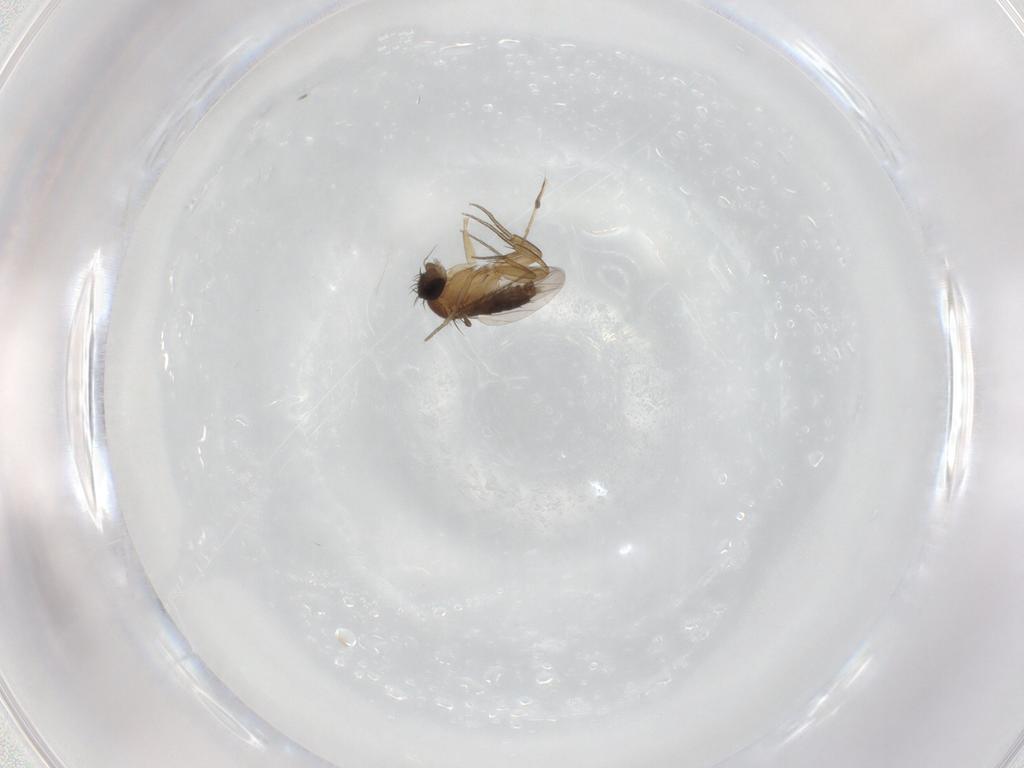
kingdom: Animalia
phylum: Arthropoda
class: Insecta
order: Diptera
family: Phoridae
